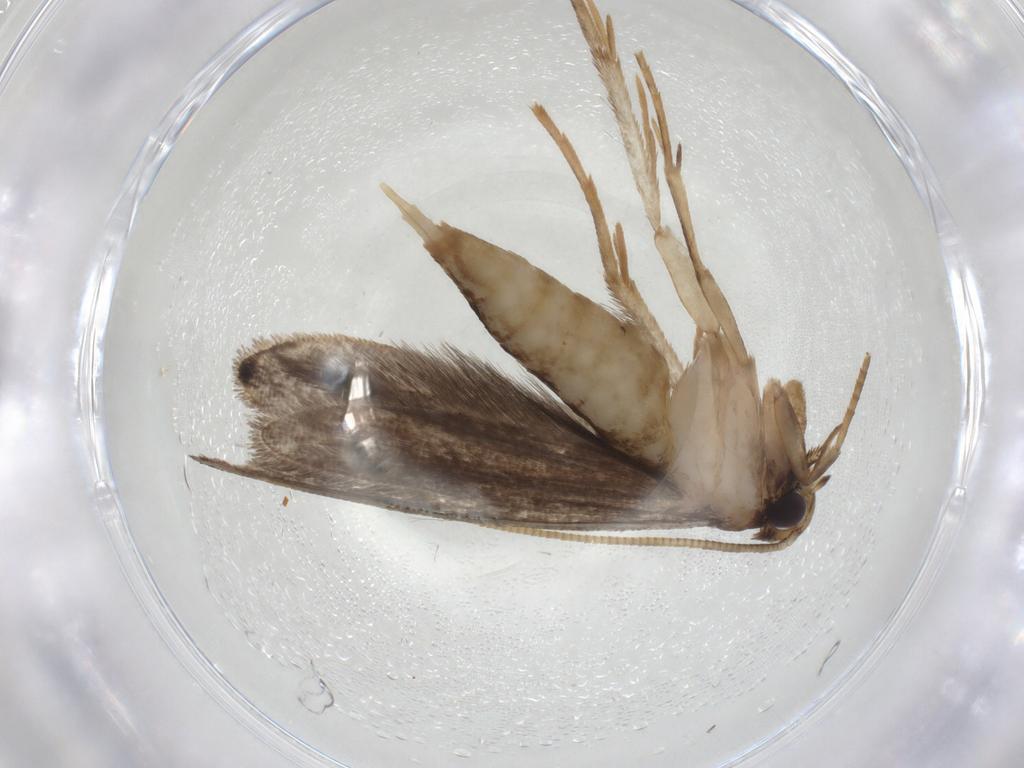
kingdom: Animalia
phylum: Arthropoda
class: Insecta
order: Lepidoptera
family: Tineidae
